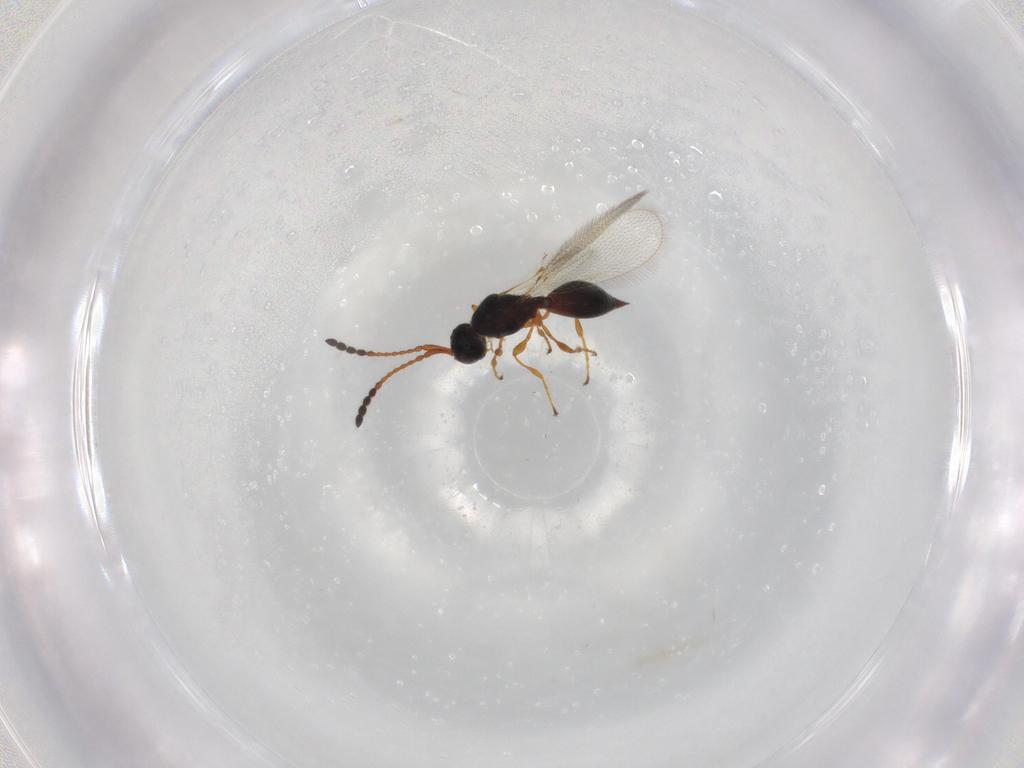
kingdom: Animalia
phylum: Arthropoda
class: Insecta
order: Hymenoptera
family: Diapriidae
